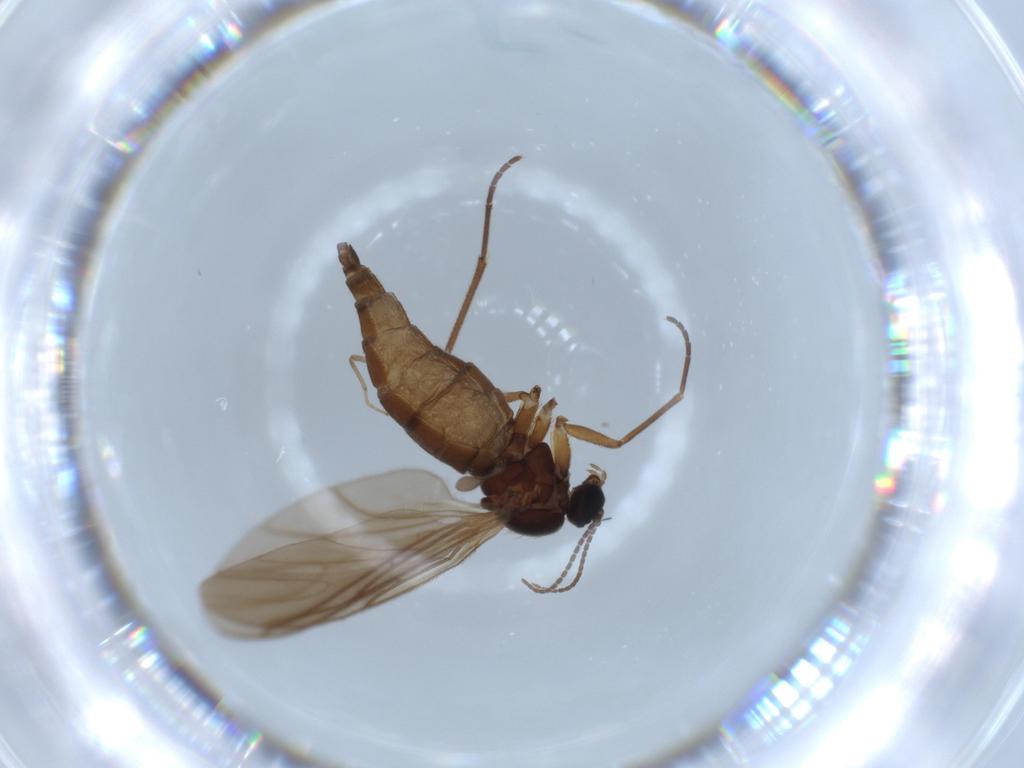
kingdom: Animalia
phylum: Arthropoda
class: Insecta
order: Diptera
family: Sciaridae
